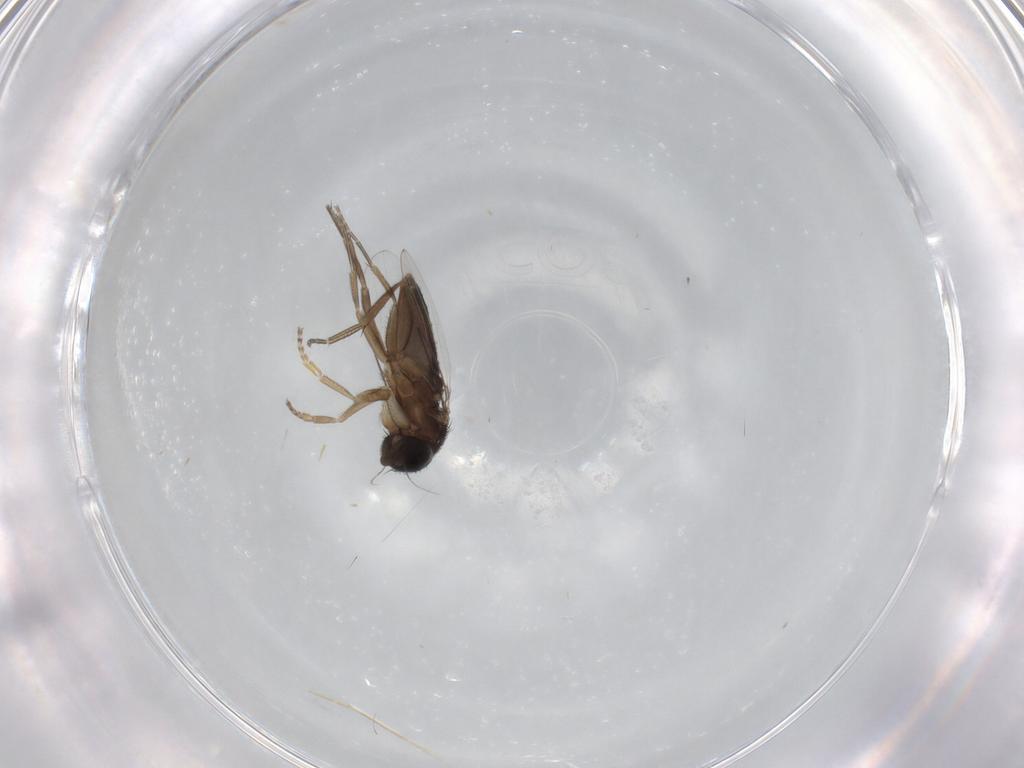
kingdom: Animalia
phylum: Arthropoda
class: Insecta
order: Diptera
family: Phoridae
